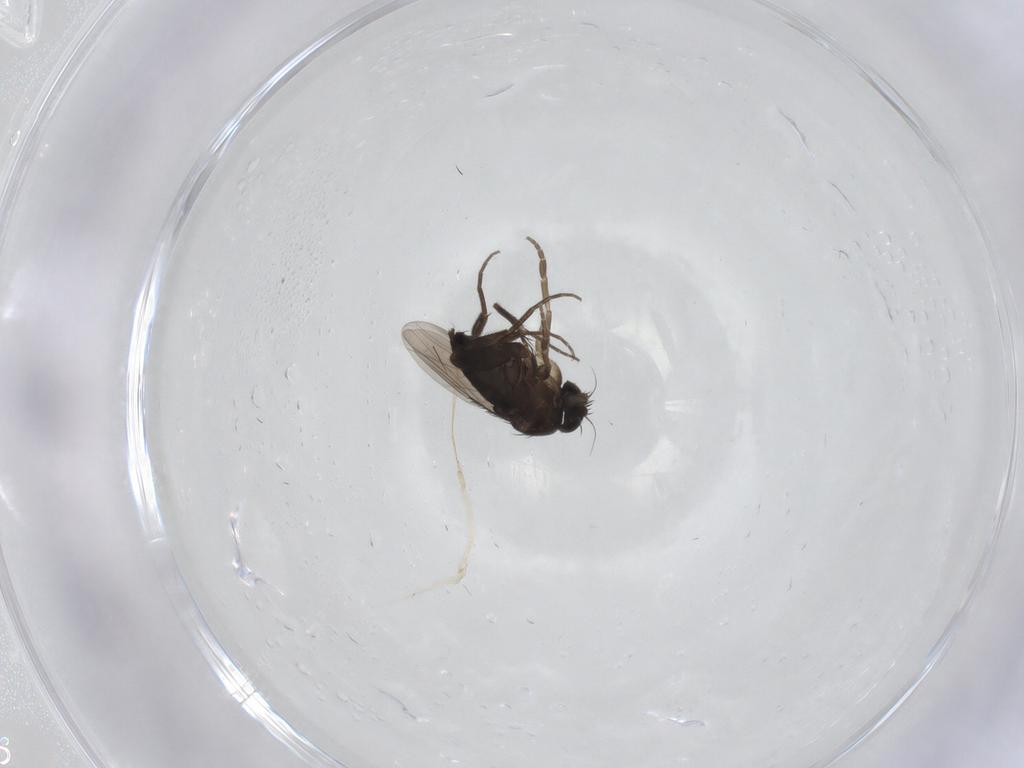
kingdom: Animalia
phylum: Arthropoda
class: Insecta
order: Diptera
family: Phoridae
